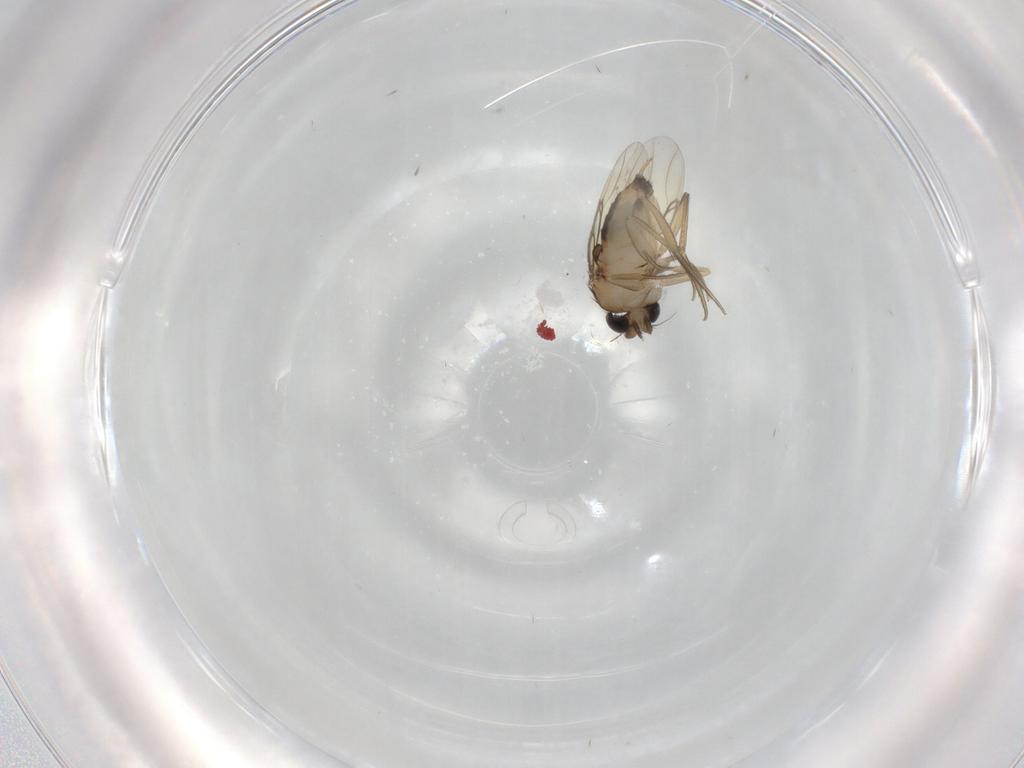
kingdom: Animalia
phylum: Arthropoda
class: Insecta
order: Diptera
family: Phoridae
